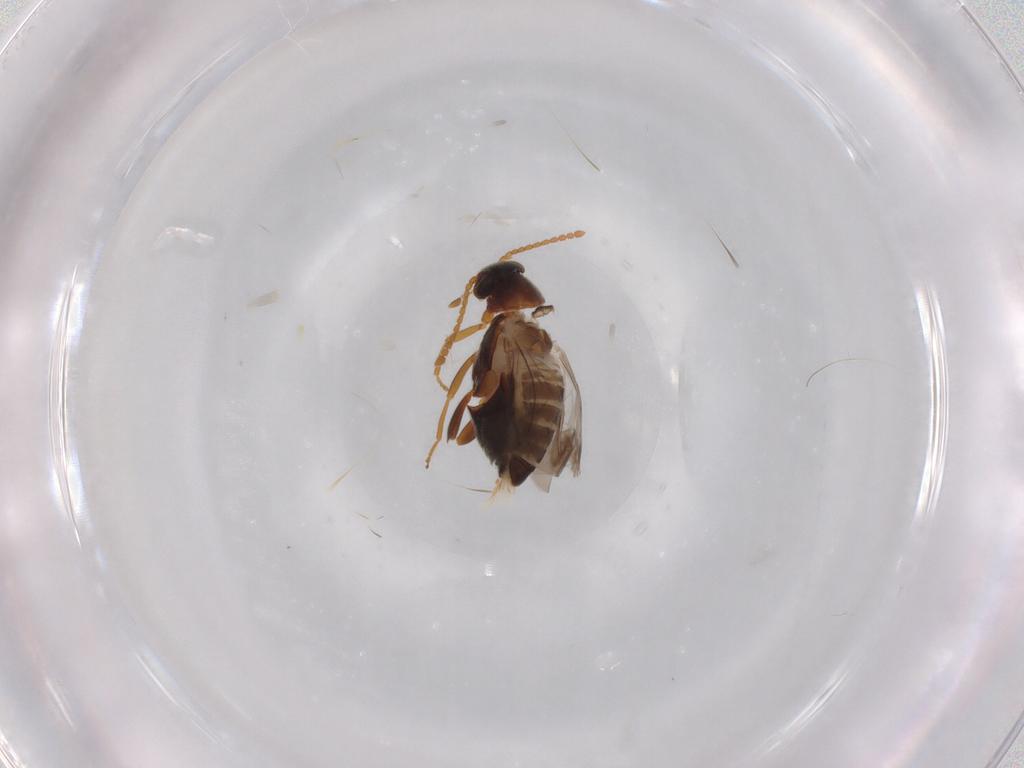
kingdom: Animalia
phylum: Arthropoda
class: Insecta
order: Coleoptera
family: Aderidae
